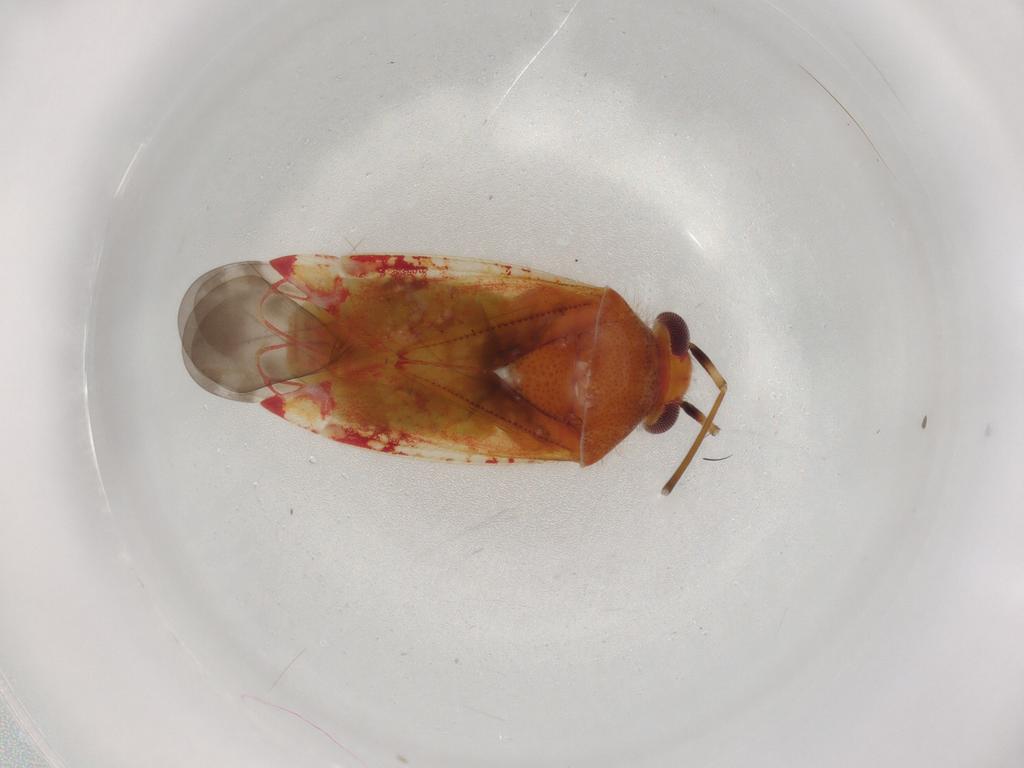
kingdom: Animalia
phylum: Arthropoda
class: Insecta
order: Hemiptera
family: Miridae
